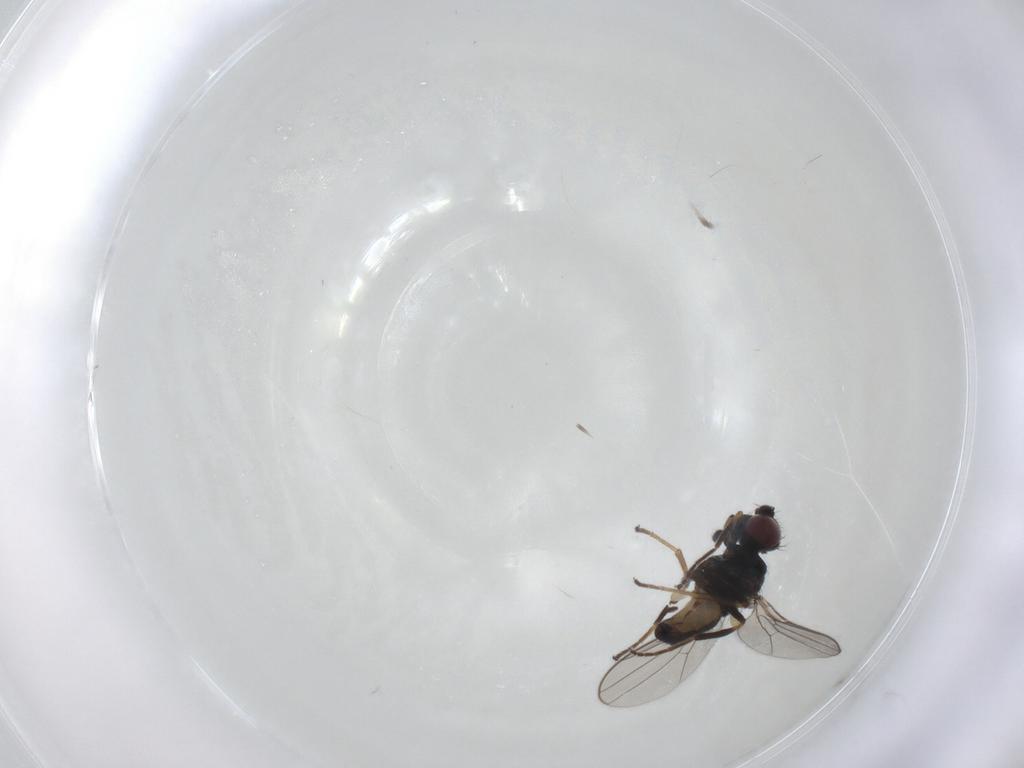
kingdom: Animalia
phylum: Arthropoda
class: Insecta
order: Diptera
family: Chloropidae
